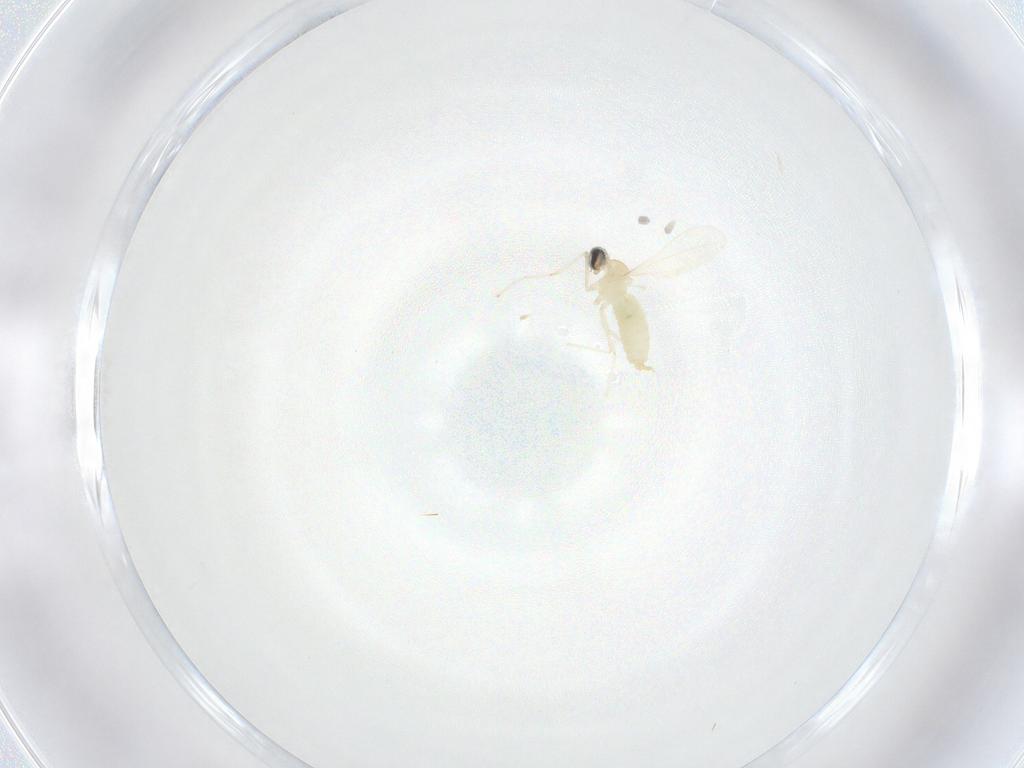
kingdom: Animalia
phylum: Arthropoda
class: Insecta
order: Diptera
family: Cecidomyiidae
